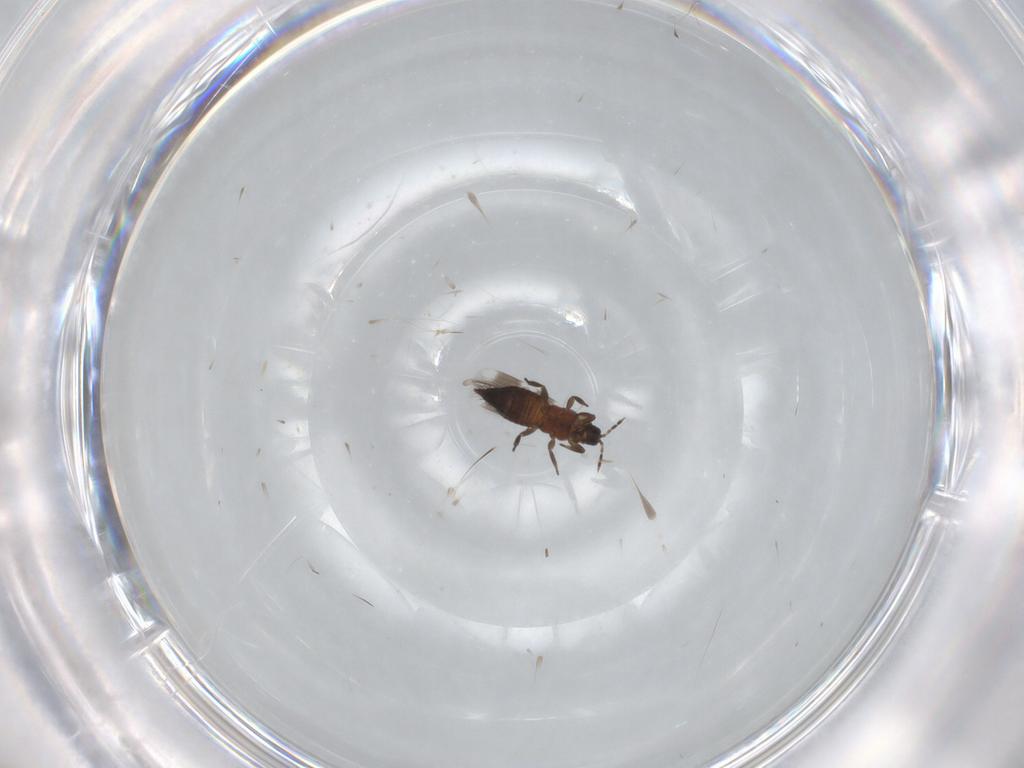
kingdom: Animalia
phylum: Arthropoda
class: Insecta
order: Thysanoptera
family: Aeolothripidae
